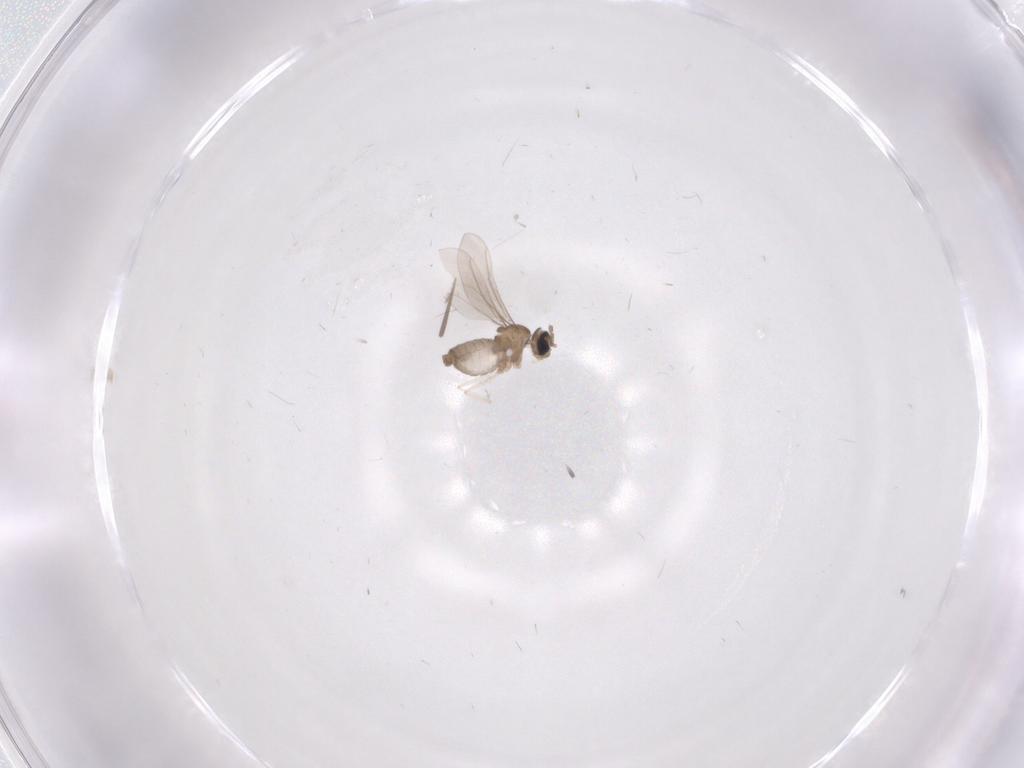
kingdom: Animalia
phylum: Arthropoda
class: Insecta
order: Diptera
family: Cecidomyiidae
